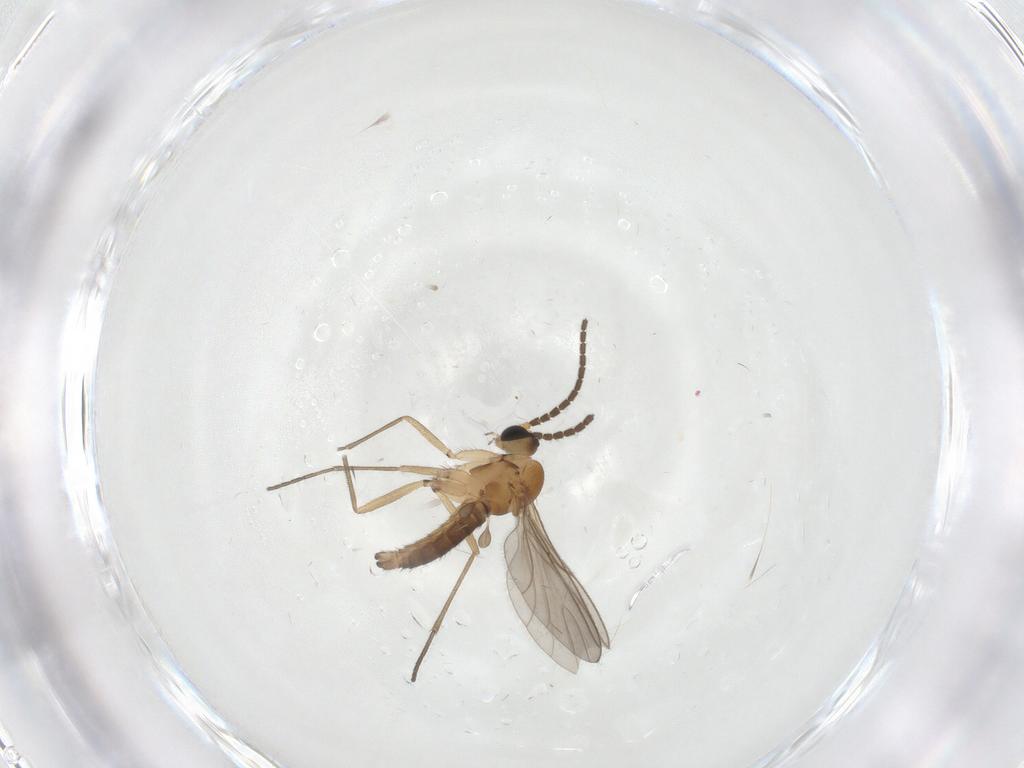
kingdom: Animalia
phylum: Arthropoda
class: Insecta
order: Diptera
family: Sciaridae
